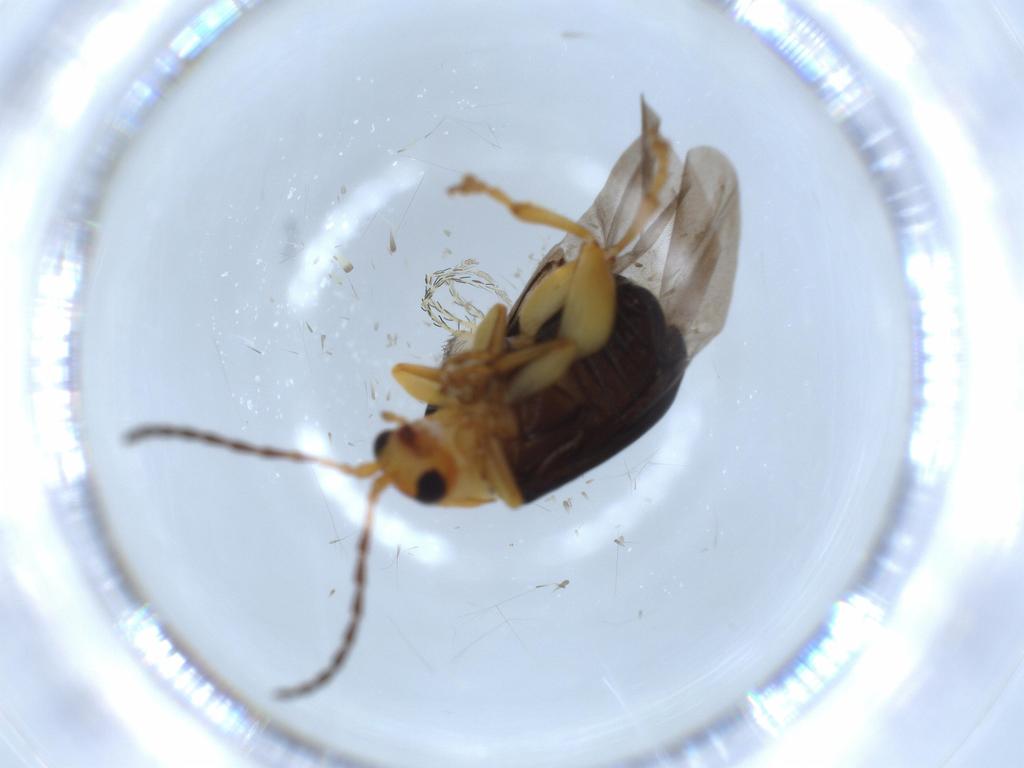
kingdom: Animalia
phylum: Arthropoda
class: Insecta
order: Coleoptera
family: Chrysomelidae
